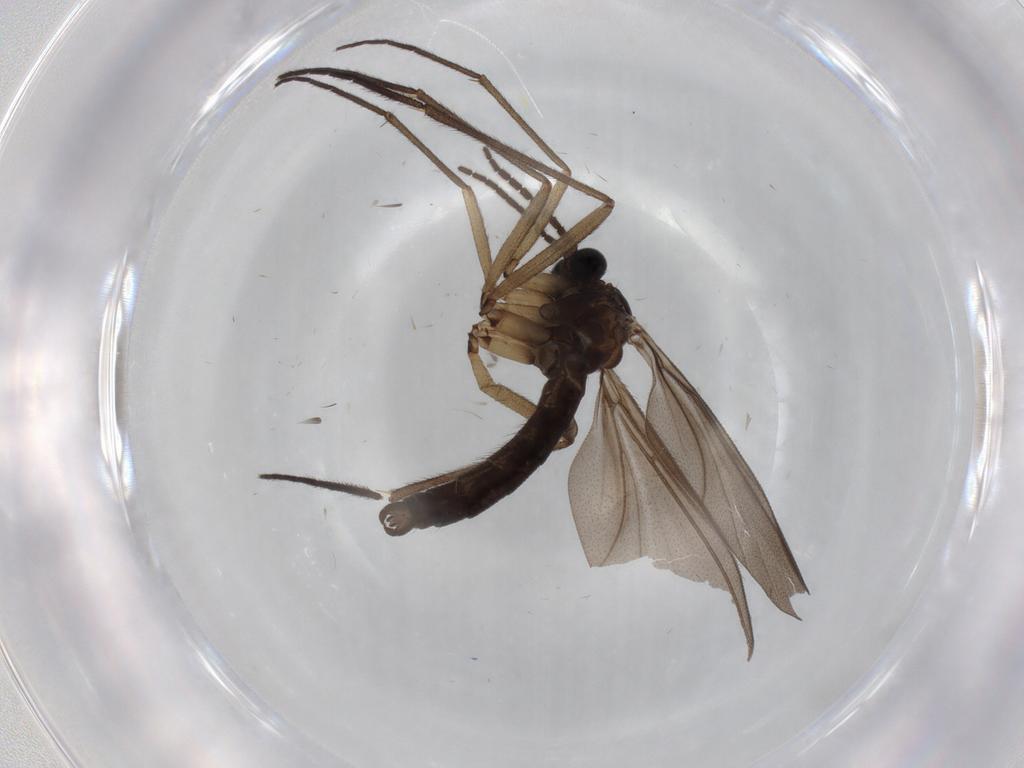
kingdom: Animalia
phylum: Arthropoda
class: Insecta
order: Diptera
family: Sciaridae
